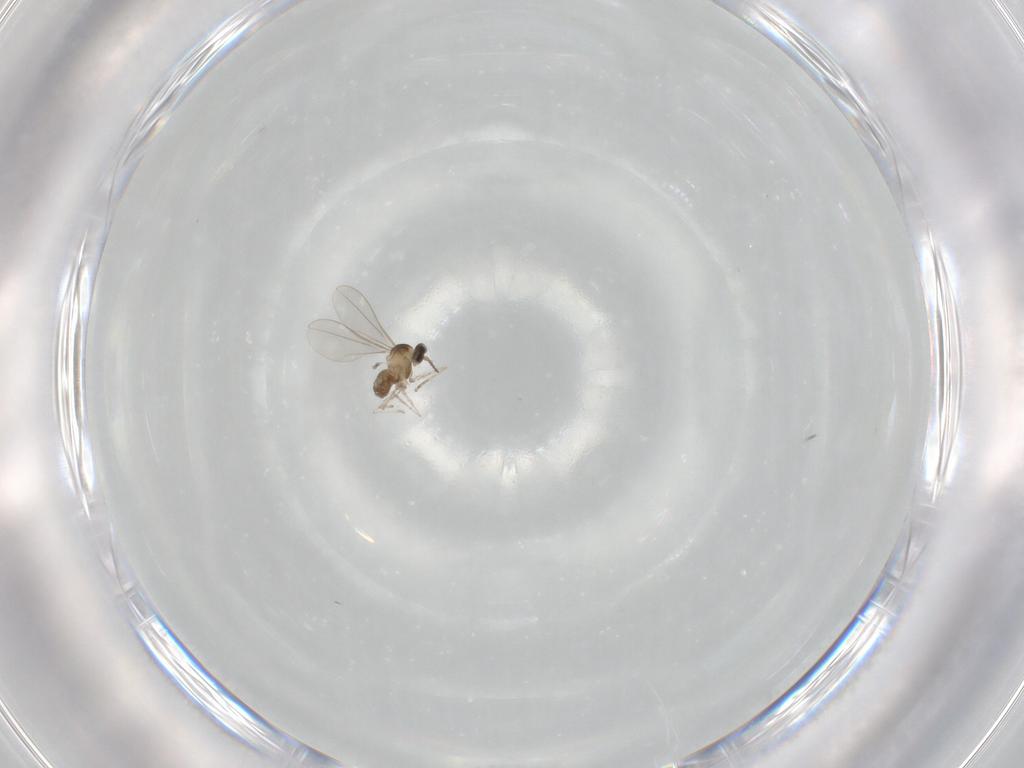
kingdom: Animalia
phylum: Arthropoda
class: Insecta
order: Diptera
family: Cecidomyiidae
